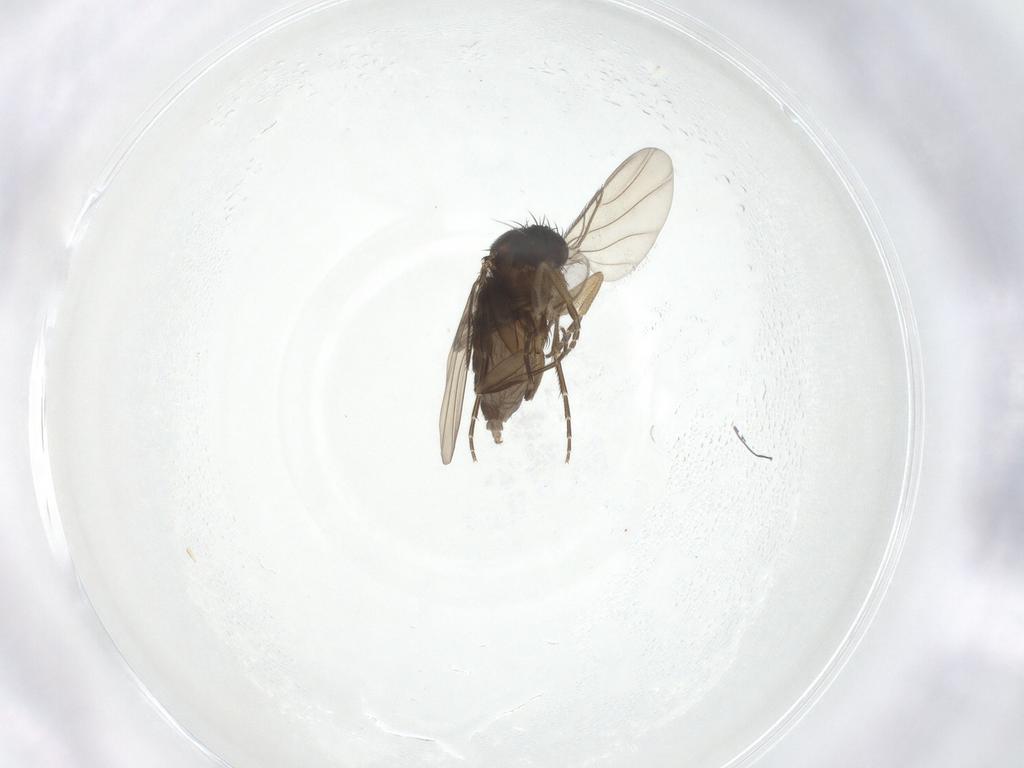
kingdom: Animalia
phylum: Arthropoda
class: Insecta
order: Diptera
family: Phoridae
